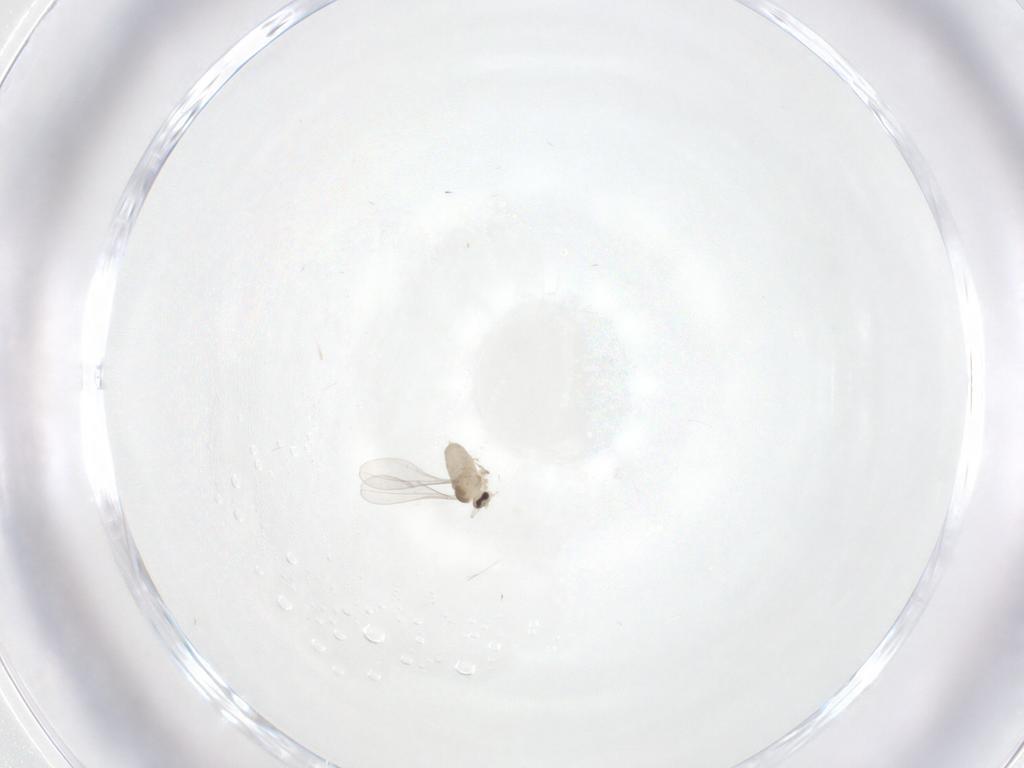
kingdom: Animalia
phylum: Arthropoda
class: Insecta
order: Diptera
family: Cecidomyiidae
